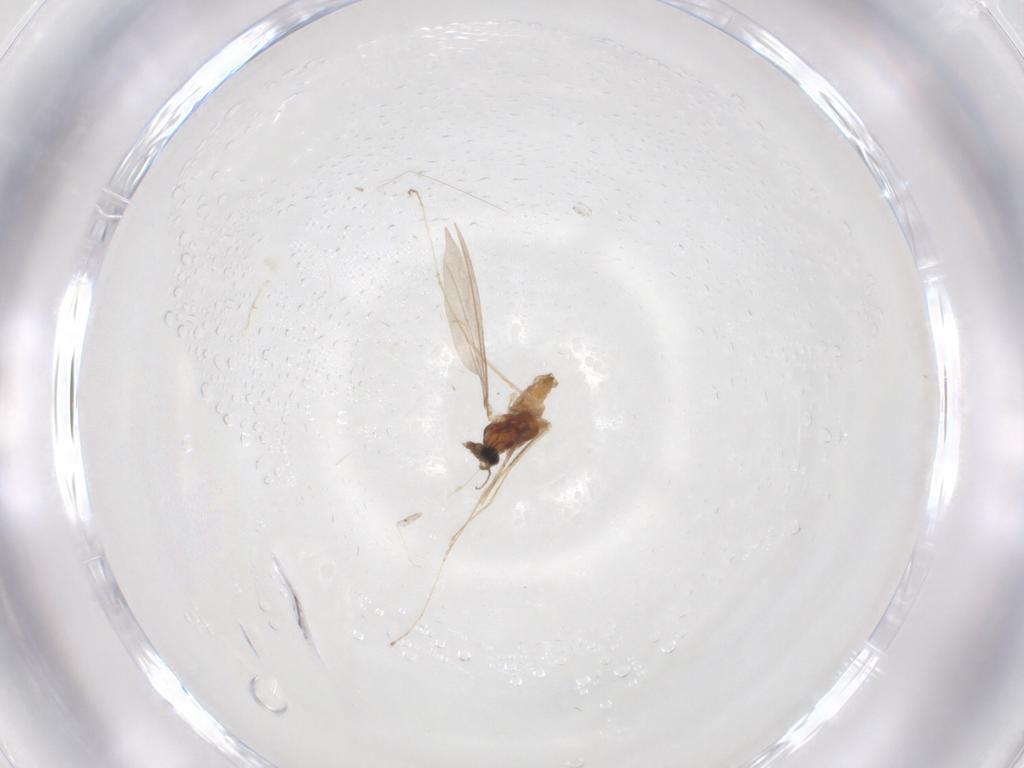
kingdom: Animalia
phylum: Arthropoda
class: Insecta
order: Diptera
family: Cecidomyiidae
